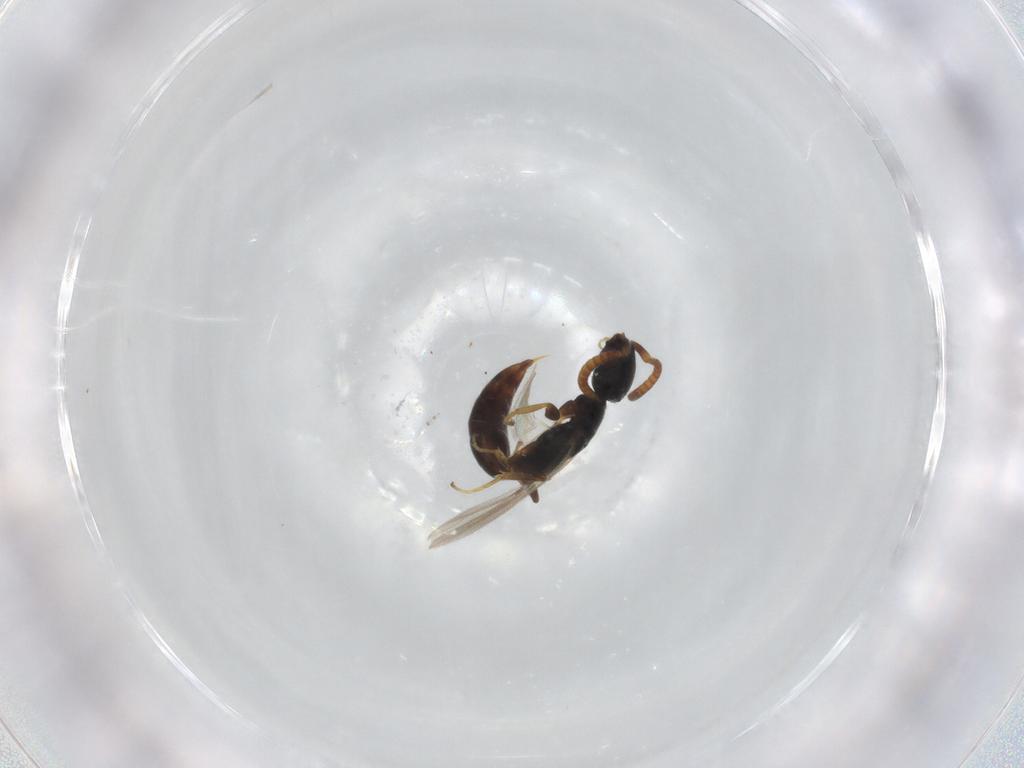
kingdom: Animalia
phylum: Arthropoda
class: Insecta
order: Hymenoptera
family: Bethylidae
